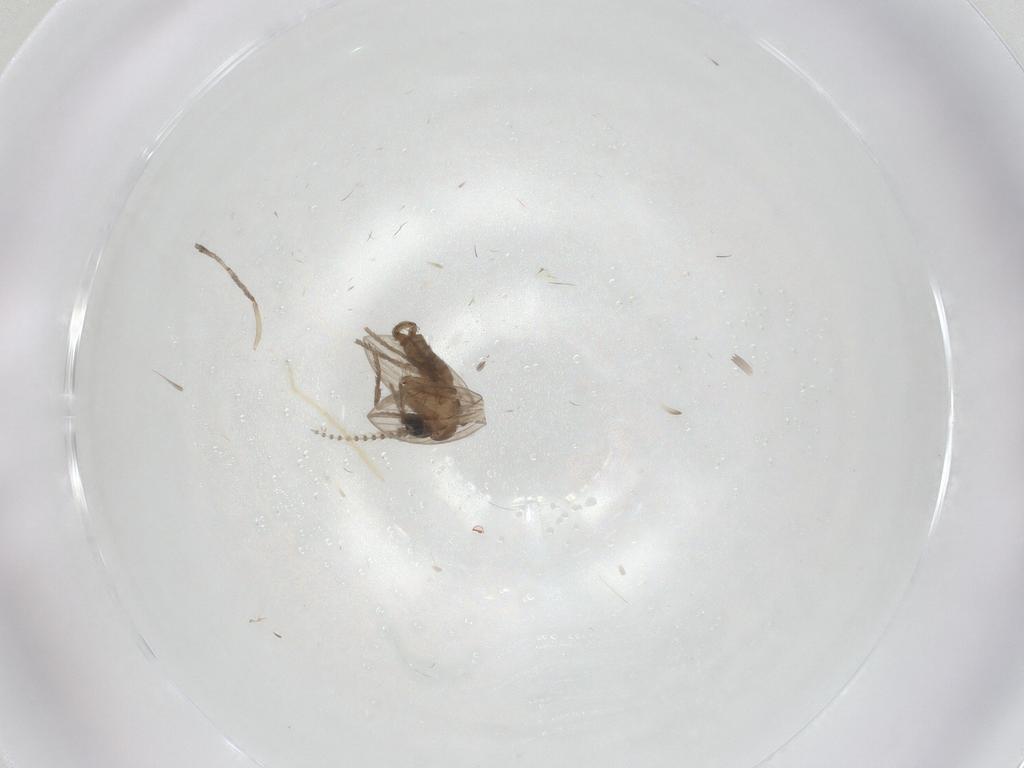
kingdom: Animalia
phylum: Arthropoda
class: Insecta
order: Diptera
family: Psychodidae
